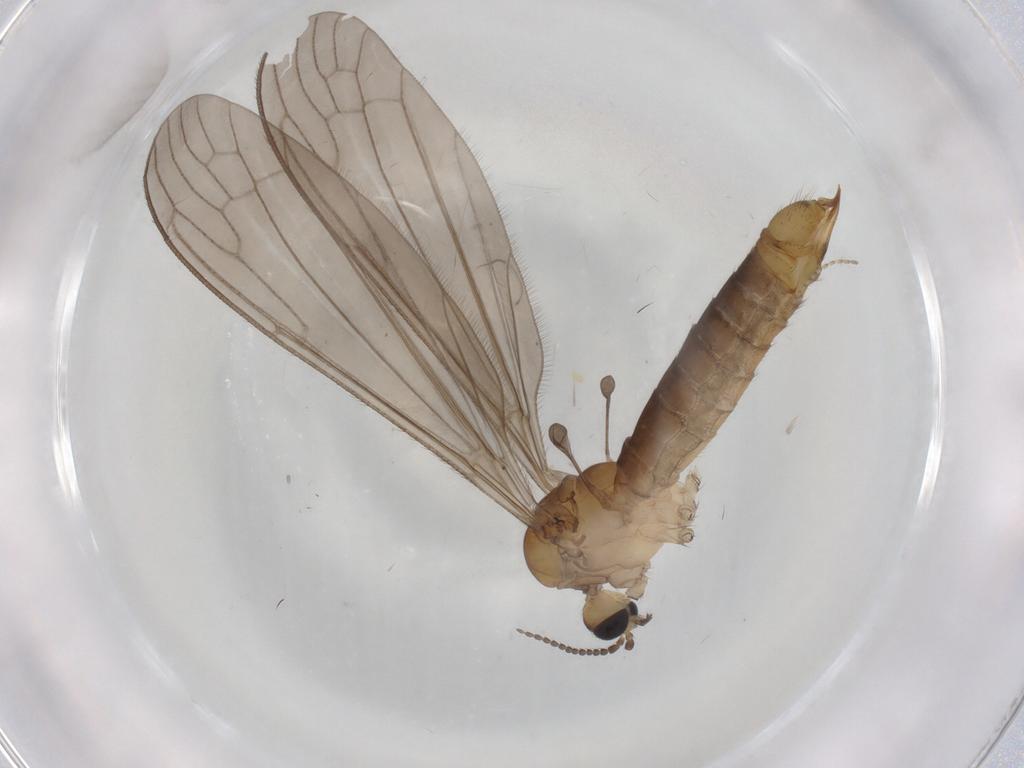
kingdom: Animalia
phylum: Arthropoda
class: Insecta
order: Diptera
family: Limoniidae
